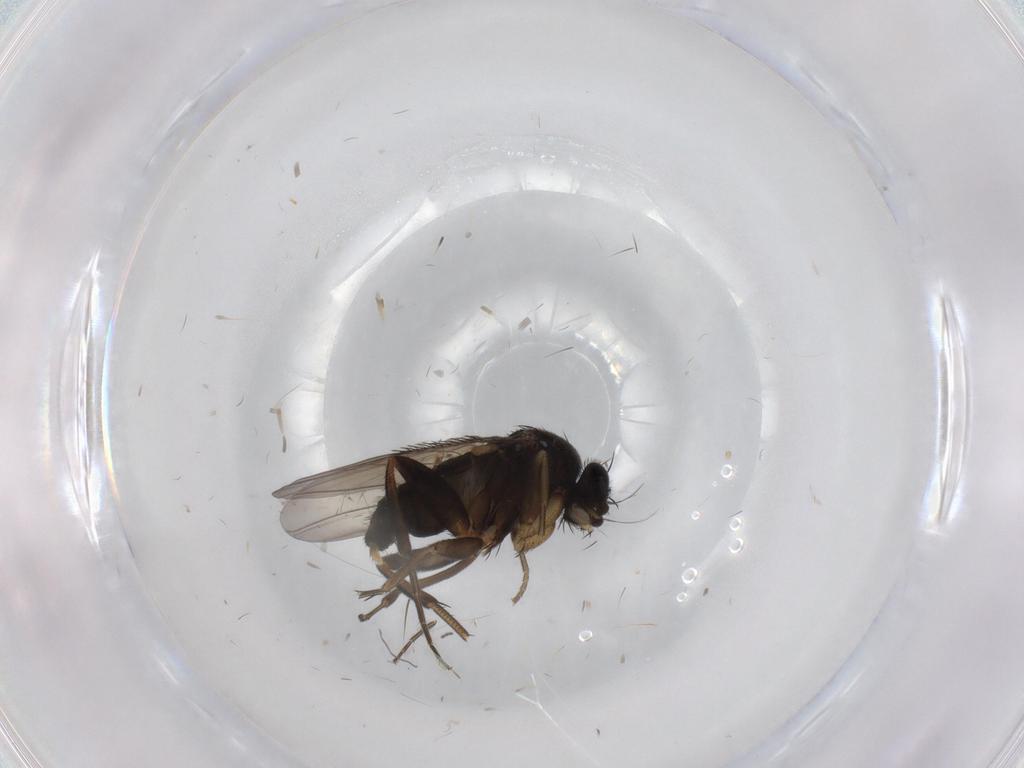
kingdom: Animalia
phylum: Arthropoda
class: Insecta
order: Diptera
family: Phoridae
